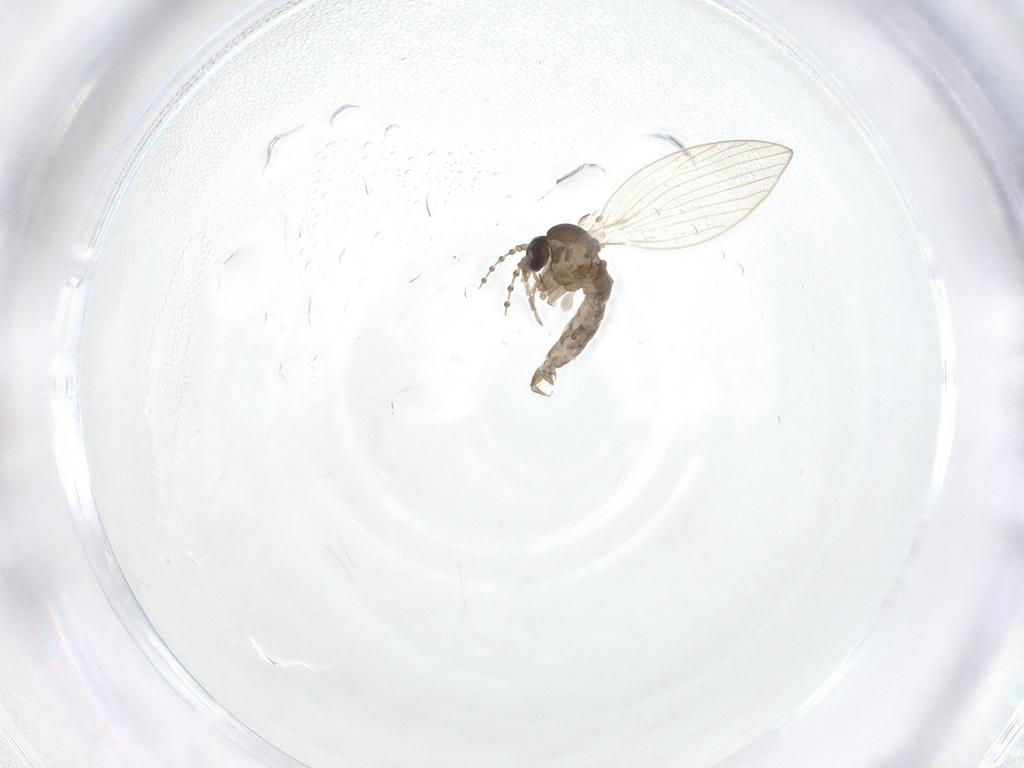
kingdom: Animalia
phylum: Arthropoda
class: Insecta
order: Diptera
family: Psychodidae
